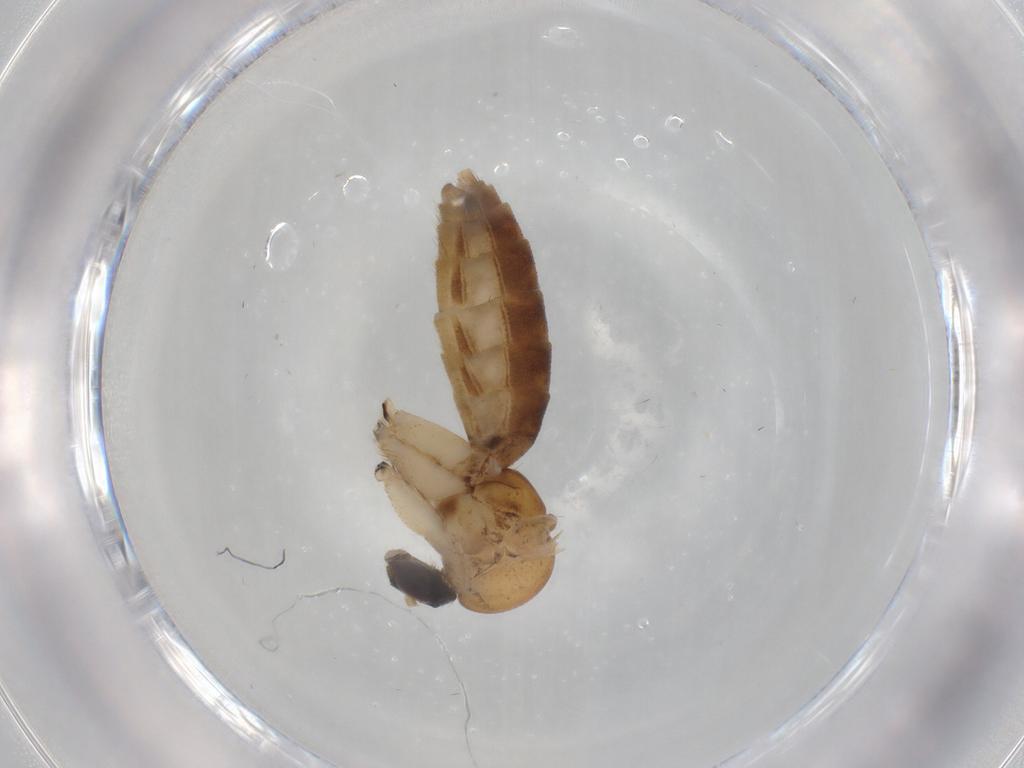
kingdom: Animalia
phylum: Arthropoda
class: Insecta
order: Diptera
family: Mycetophilidae
